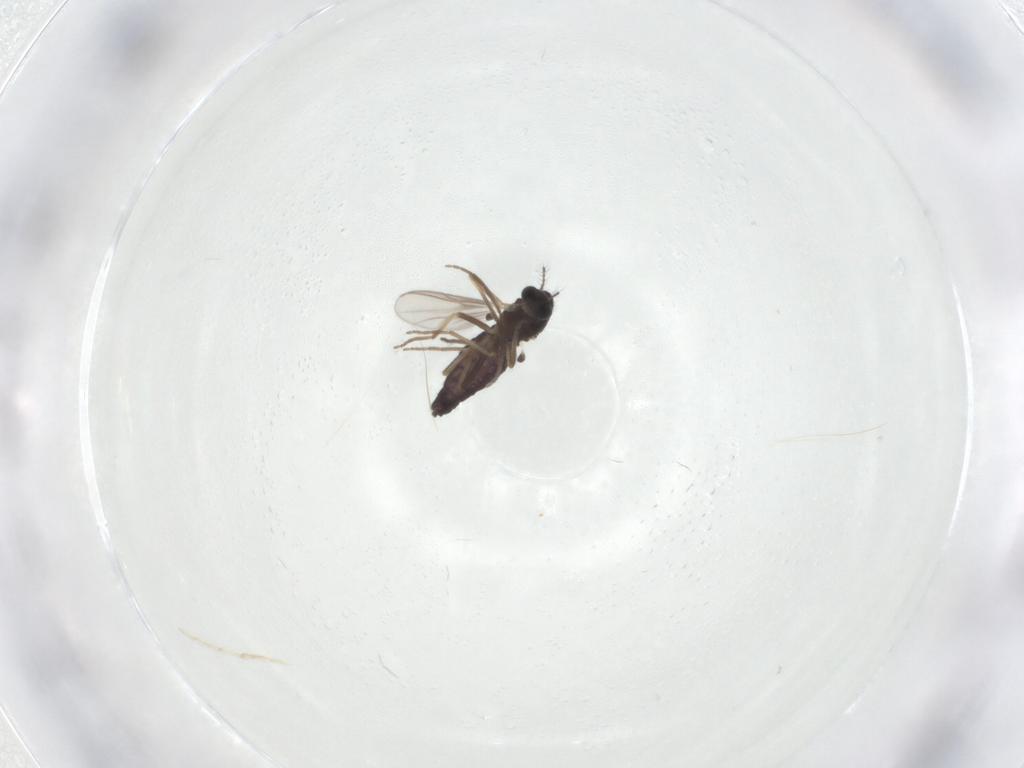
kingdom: Animalia
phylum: Arthropoda
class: Insecta
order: Diptera
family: Chironomidae
